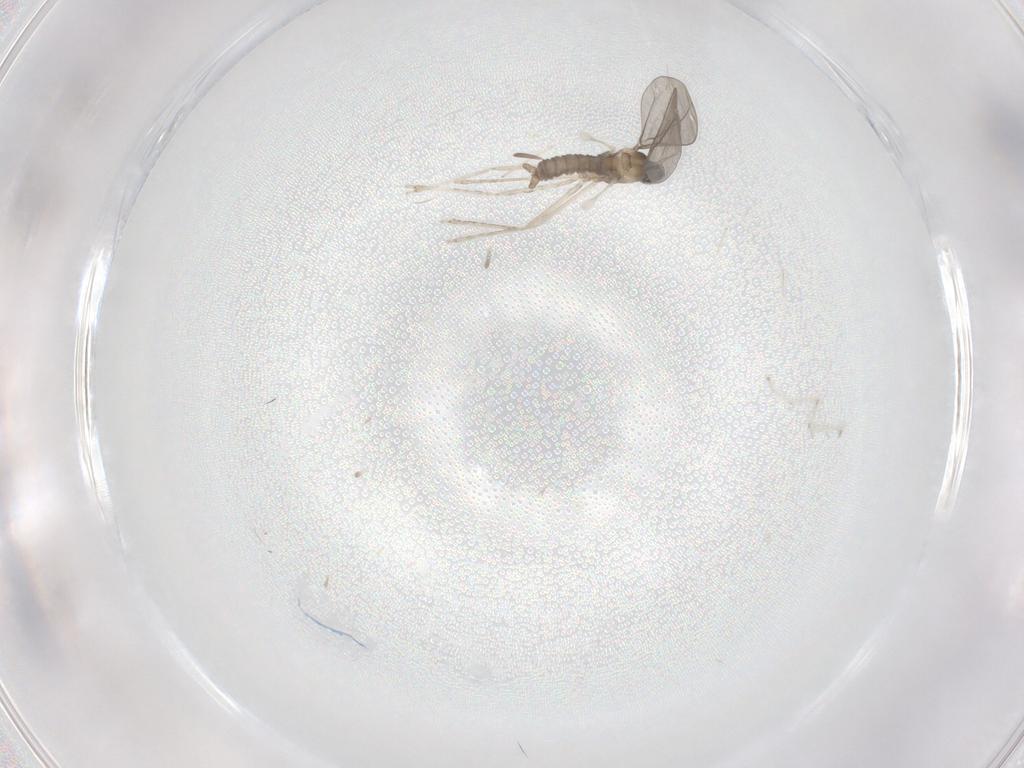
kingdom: Animalia
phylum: Arthropoda
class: Insecta
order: Diptera
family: Cecidomyiidae
